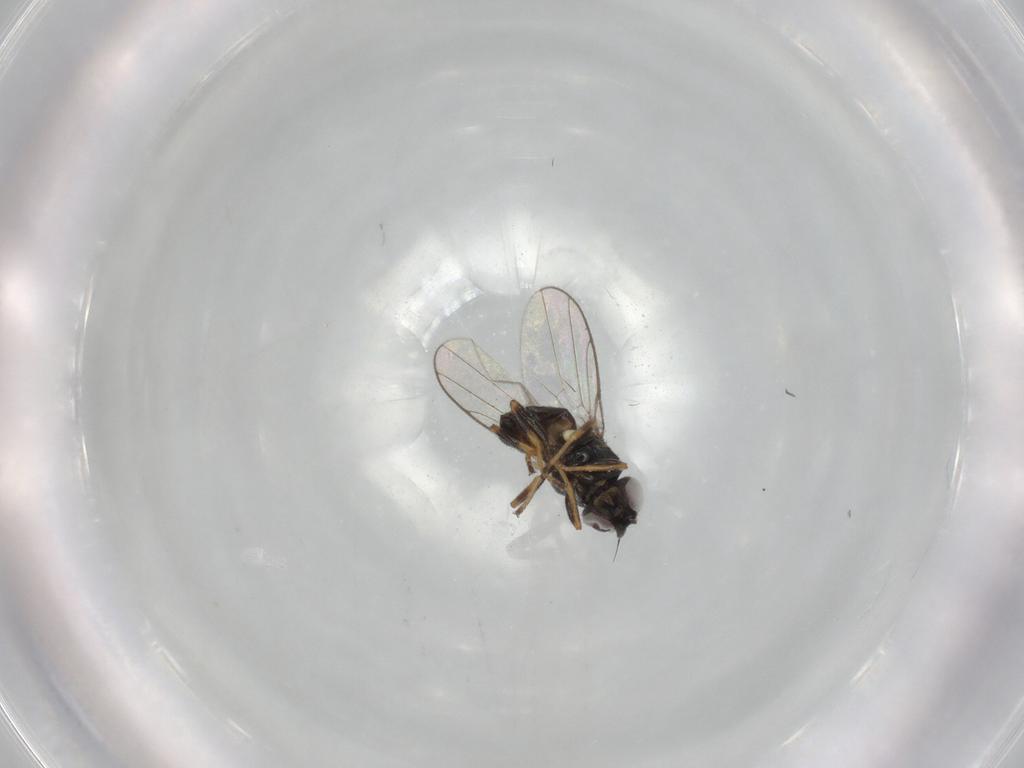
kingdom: Animalia
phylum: Arthropoda
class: Insecta
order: Diptera
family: Chloropidae
